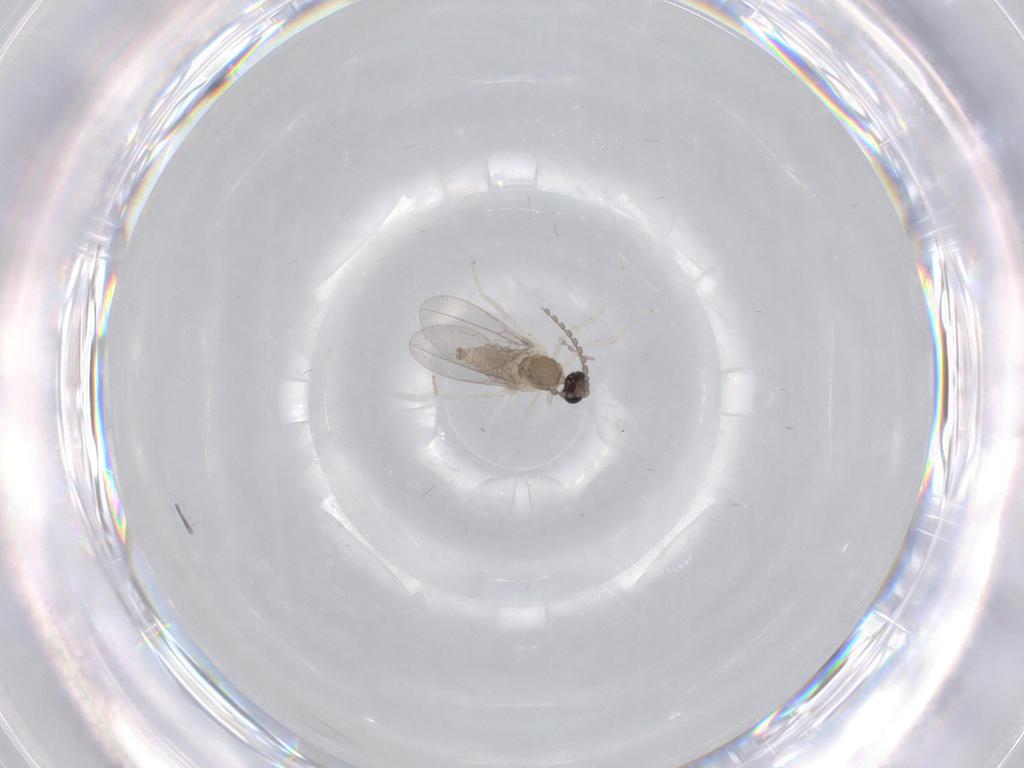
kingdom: Animalia
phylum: Arthropoda
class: Insecta
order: Diptera
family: Cecidomyiidae
